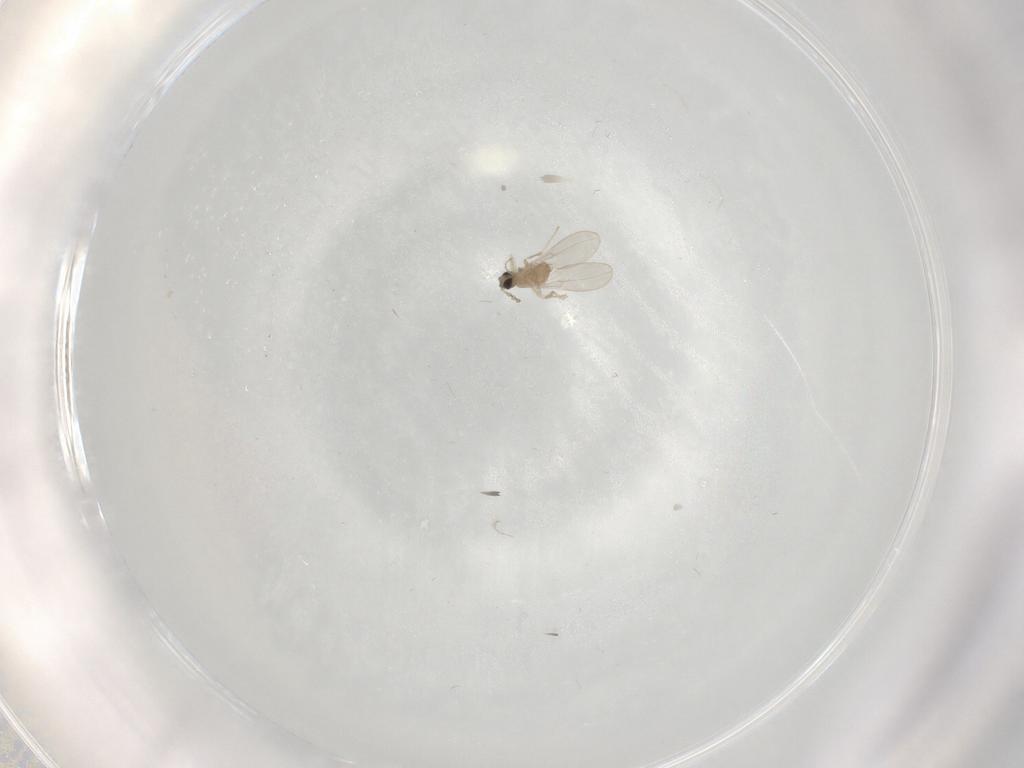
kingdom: Animalia
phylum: Arthropoda
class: Insecta
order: Diptera
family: Cecidomyiidae
